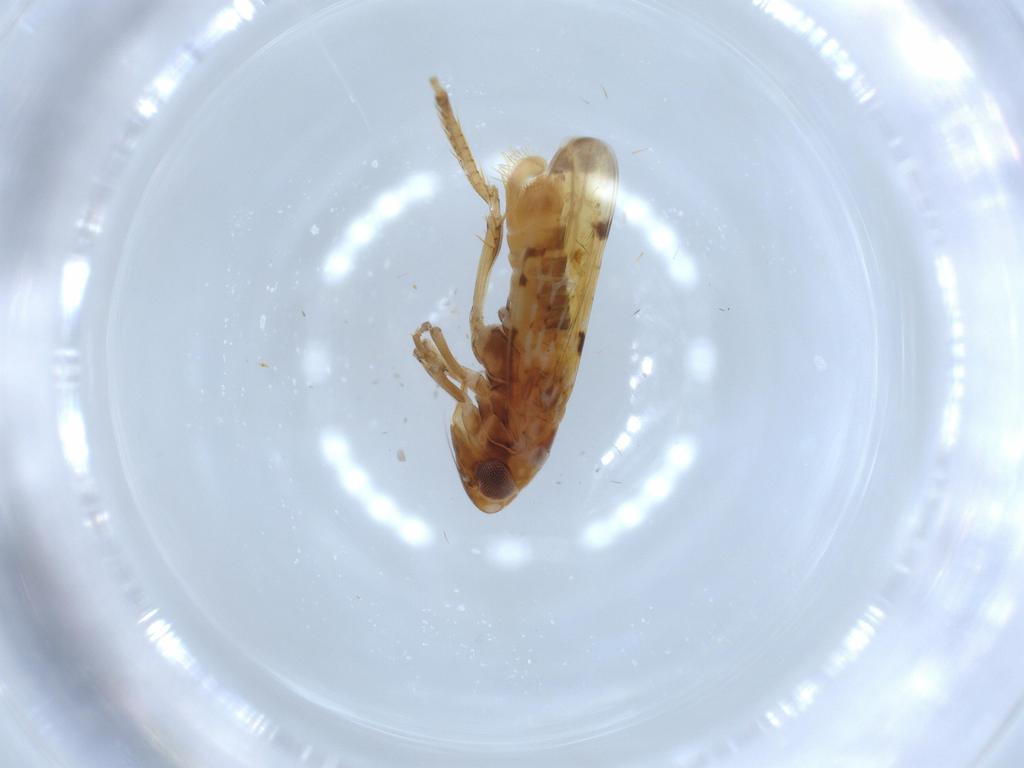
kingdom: Animalia
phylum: Arthropoda
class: Insecta
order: Hemiptera
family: Cicadellidae
